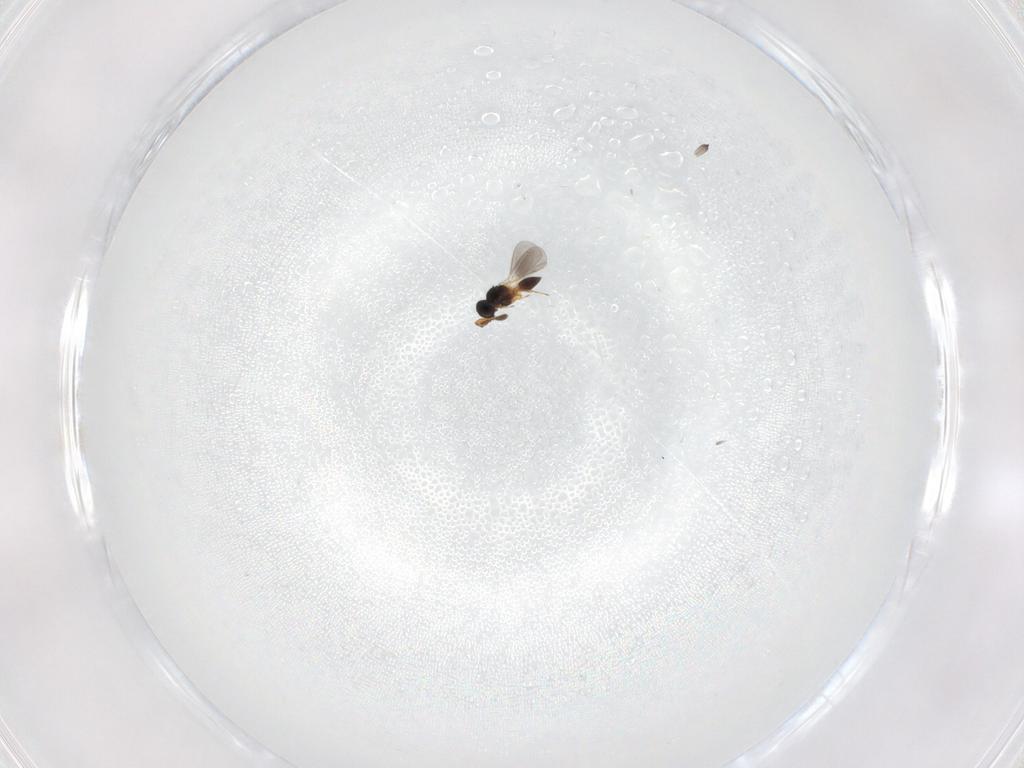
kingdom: Animalia
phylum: Arthropoda
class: Insecta
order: Hymenoptera
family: Platygastridae
